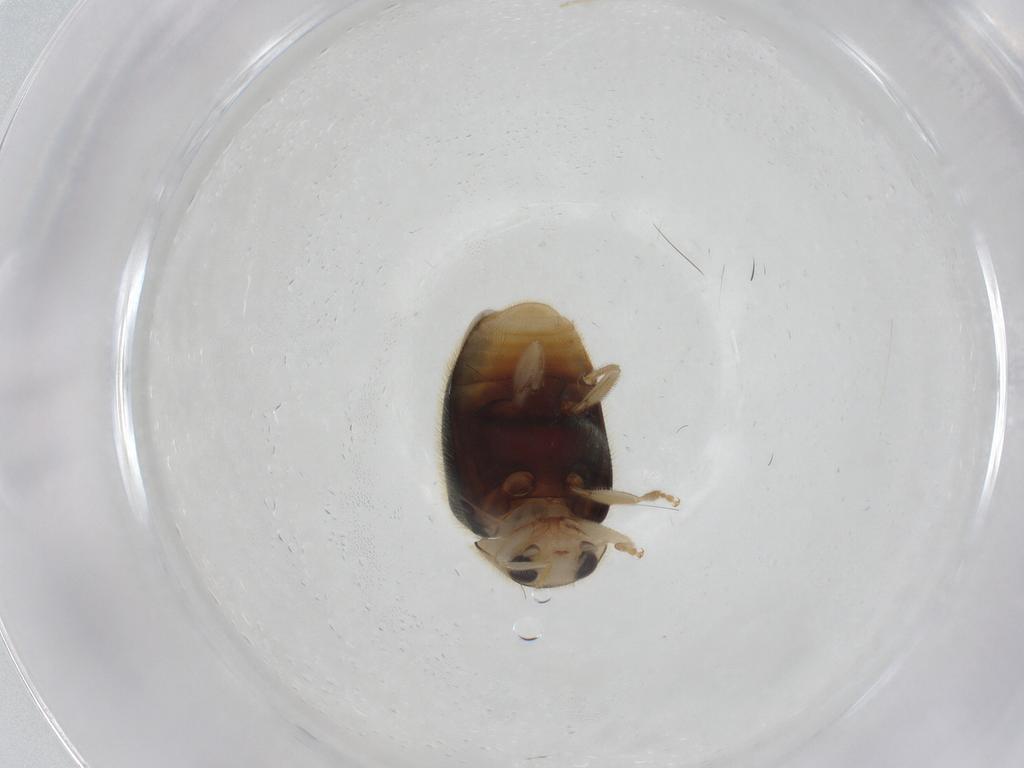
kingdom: Animalia
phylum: Arthropoda
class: Insecta
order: Coleoptera
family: Coccinellidae
